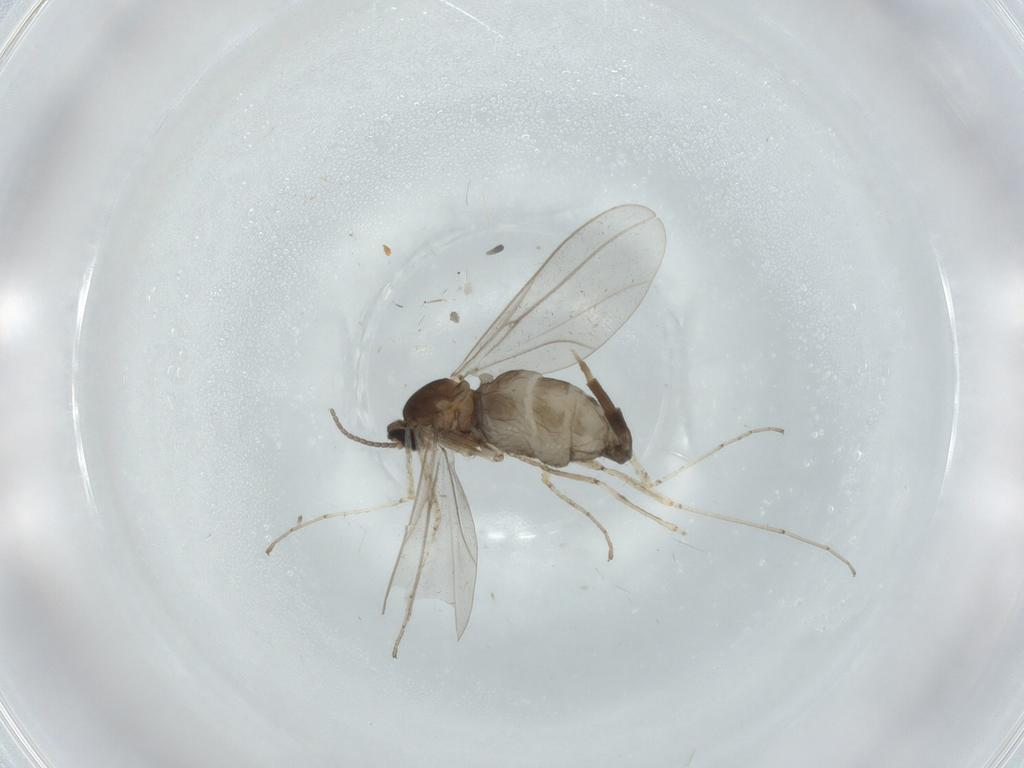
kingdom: Animalia
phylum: Arthropoda
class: Insecta
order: Diptera
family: Cecidomyiidae
